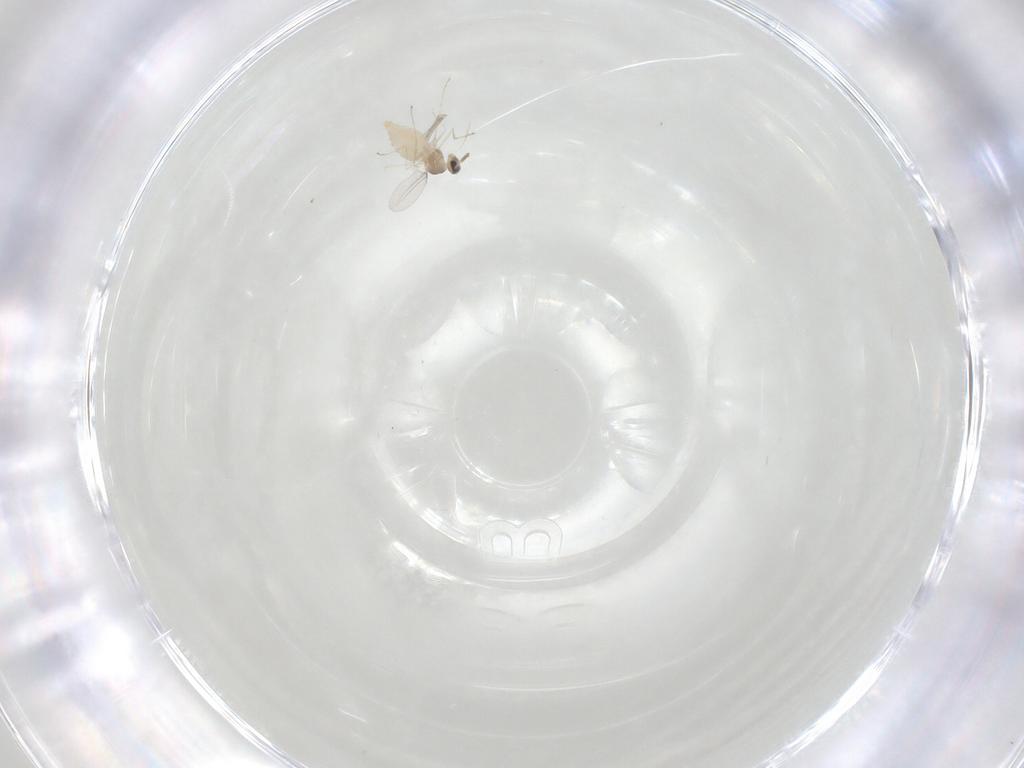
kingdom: Animalia
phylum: Arthropoda
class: Insecta
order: Diptera
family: Cecidomyiidae
